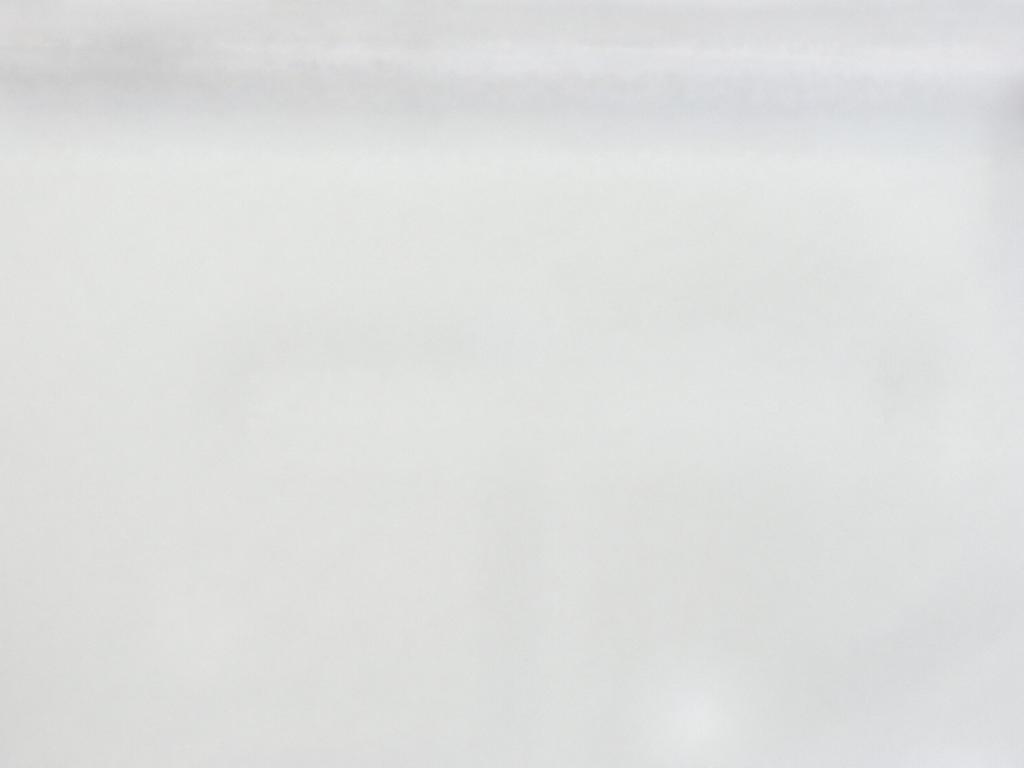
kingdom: Animalia
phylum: Arthropoda
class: Insecta
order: Hymenoptera
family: Mymaridae
